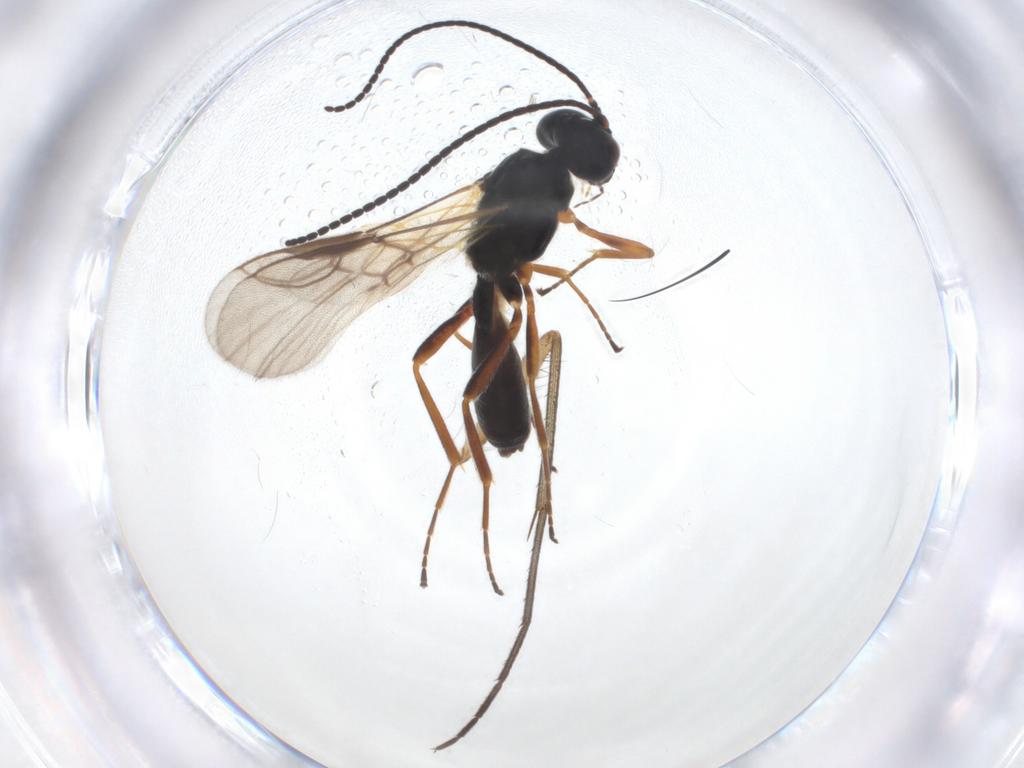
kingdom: Animalia
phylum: Arthropoda
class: Insecta
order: Hymenoptera
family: Braconidae
